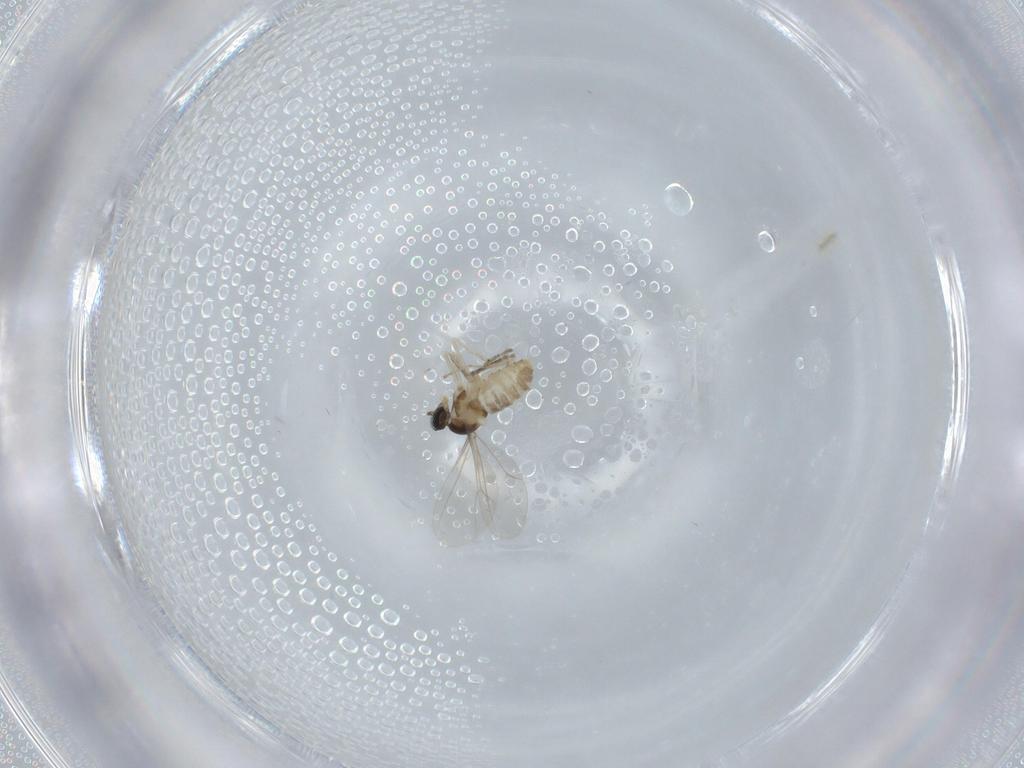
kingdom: Animalia
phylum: Arthropoda
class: Insecta
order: Diptera
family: Cecidomyiidae
